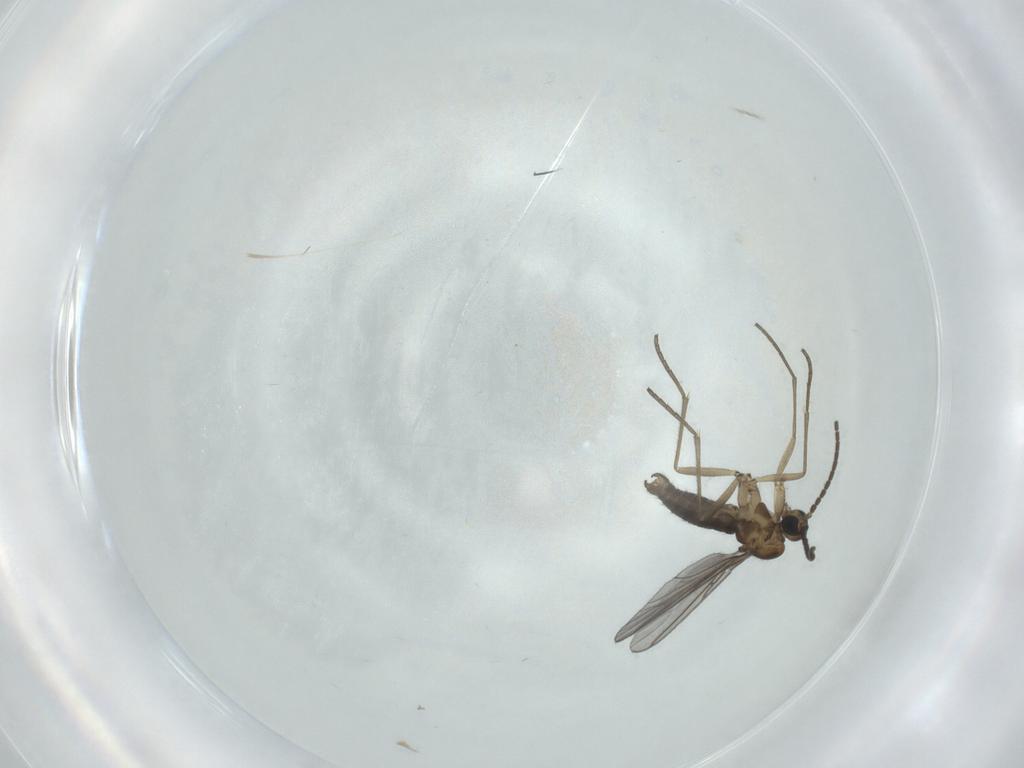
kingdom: Animalia
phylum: Arthropoda
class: Insecta
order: Diptera
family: Sciaridae
